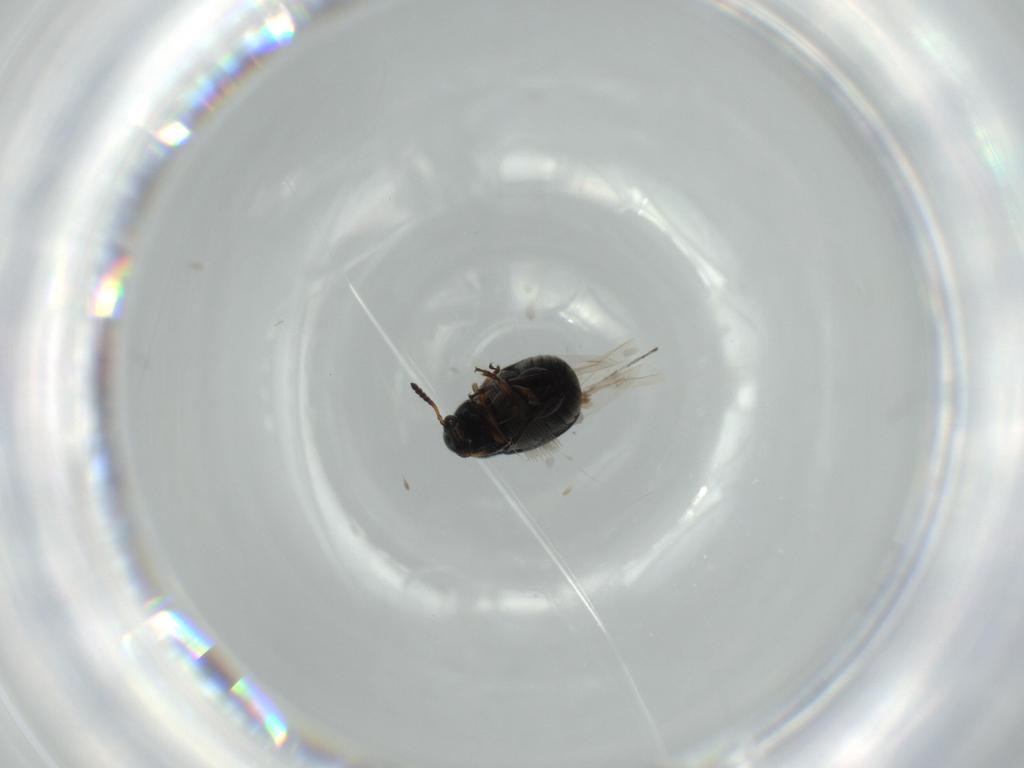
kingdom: Animalia
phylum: Arthropoda
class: Insecta
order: Coleoptera
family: Chrysomelidae
